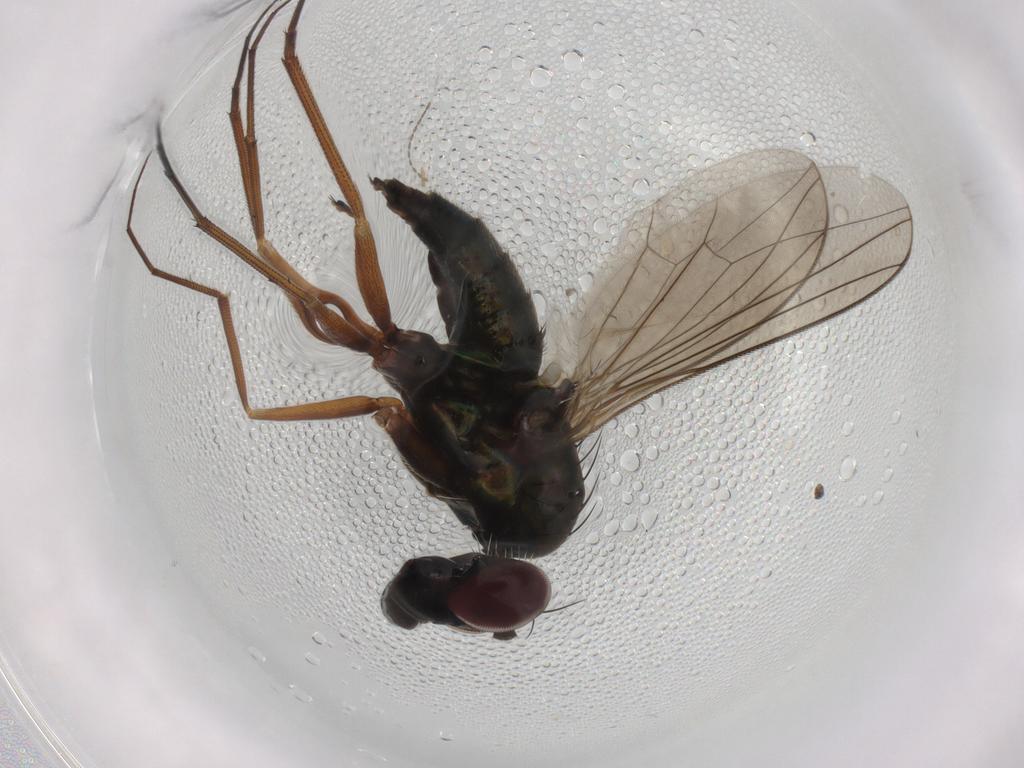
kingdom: Animalia
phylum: Arthropoda
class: Insecta
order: Diptera
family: Dolichopodidae
